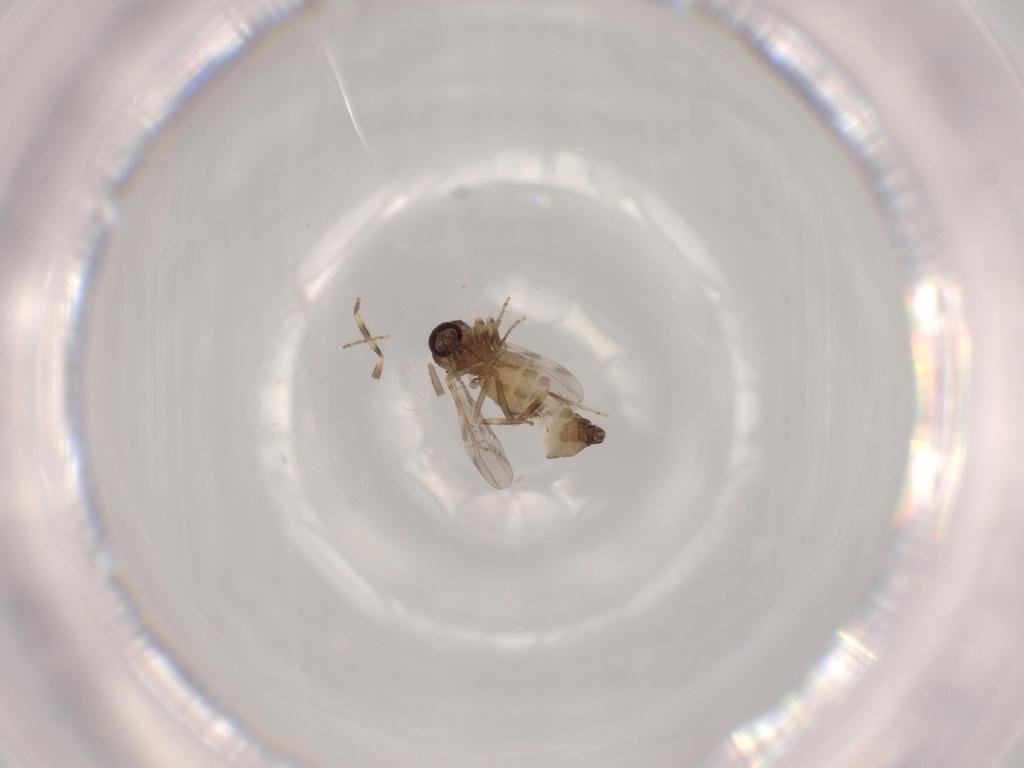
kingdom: Animalia
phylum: Arthropoda
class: Insecta
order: Diptera
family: Ceratopogonidae
